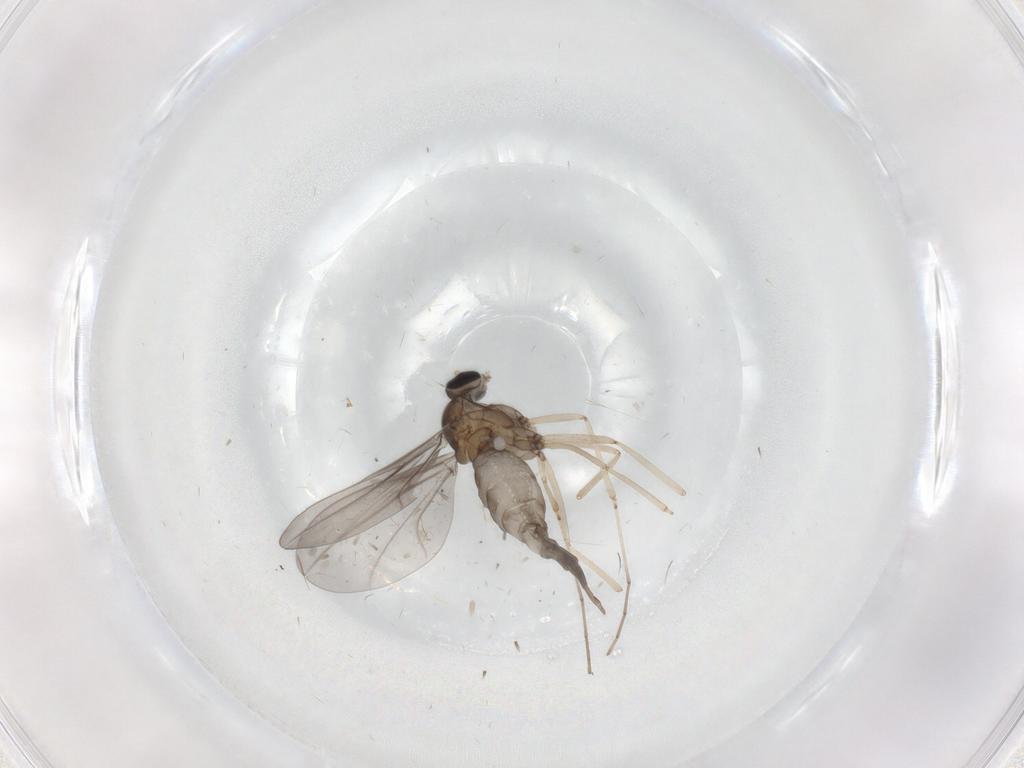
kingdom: Animalia
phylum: Arthropoda
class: Insecta
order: Diptera
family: Cecidomyiidae
